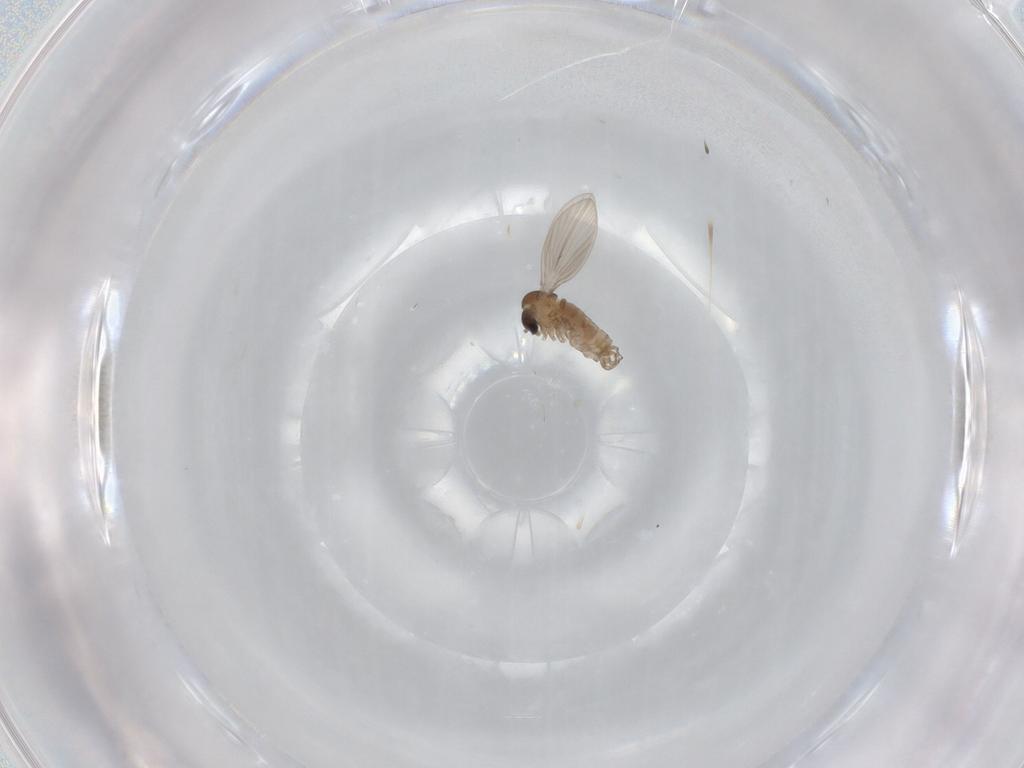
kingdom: Animalia
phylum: Arthropoda
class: Insecta
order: Diptera
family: Psychodidae
